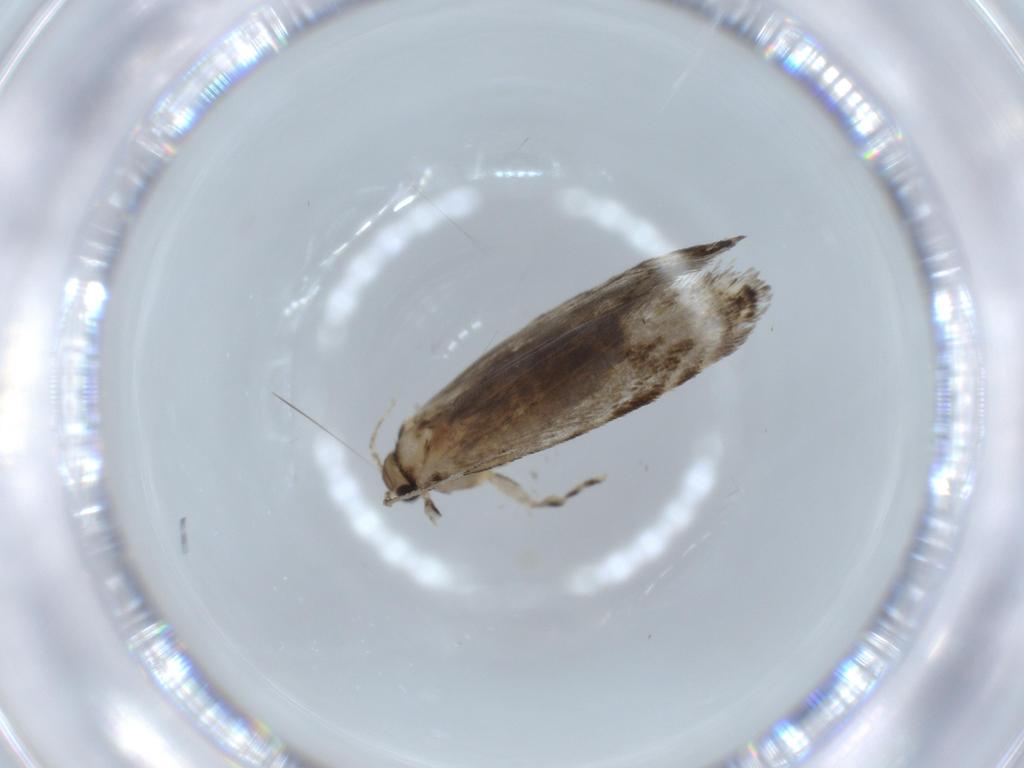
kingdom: Animalia
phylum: Arthropoda
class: Insecta
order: Lepidoptera
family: Tineidae
